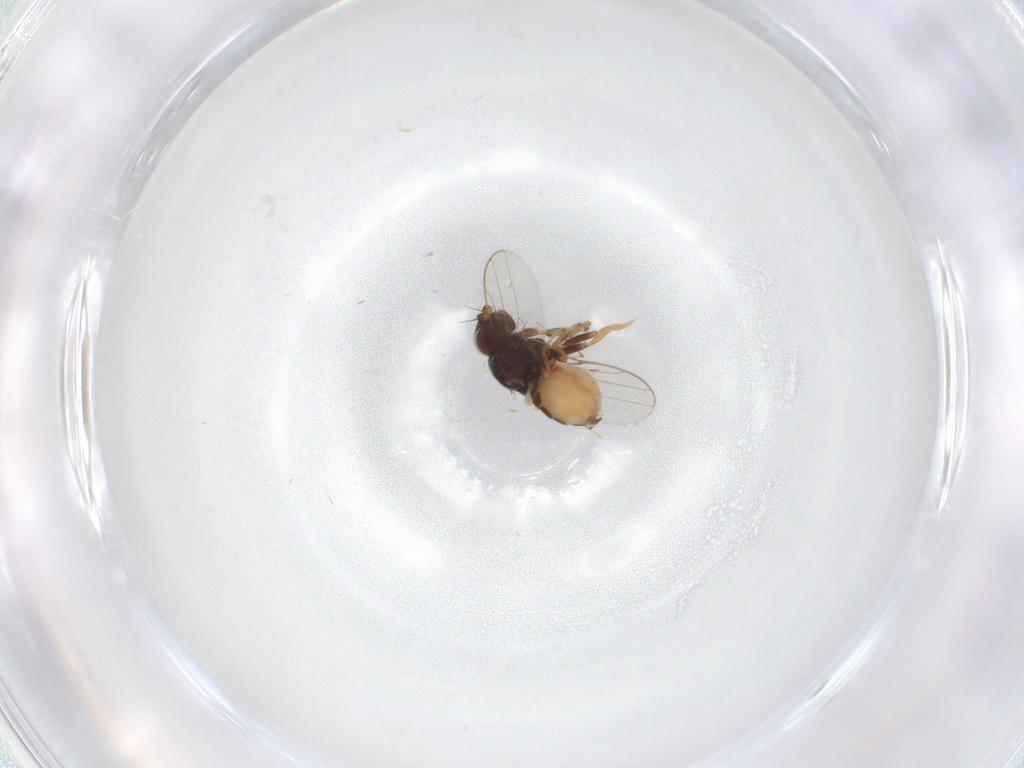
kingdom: Animalia
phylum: Arthropoda
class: Insecta
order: Diptera
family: Chloropidae
